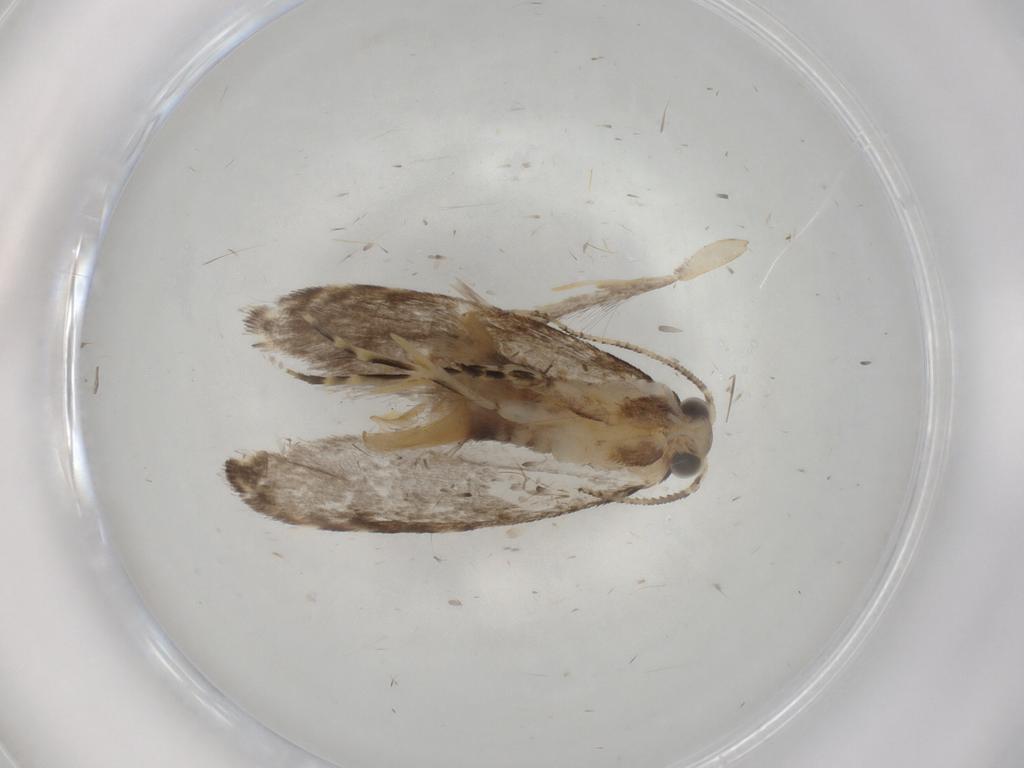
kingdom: Animalia
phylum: Arthropoda
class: Insecta
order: Lepidoptera
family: Tineidae
